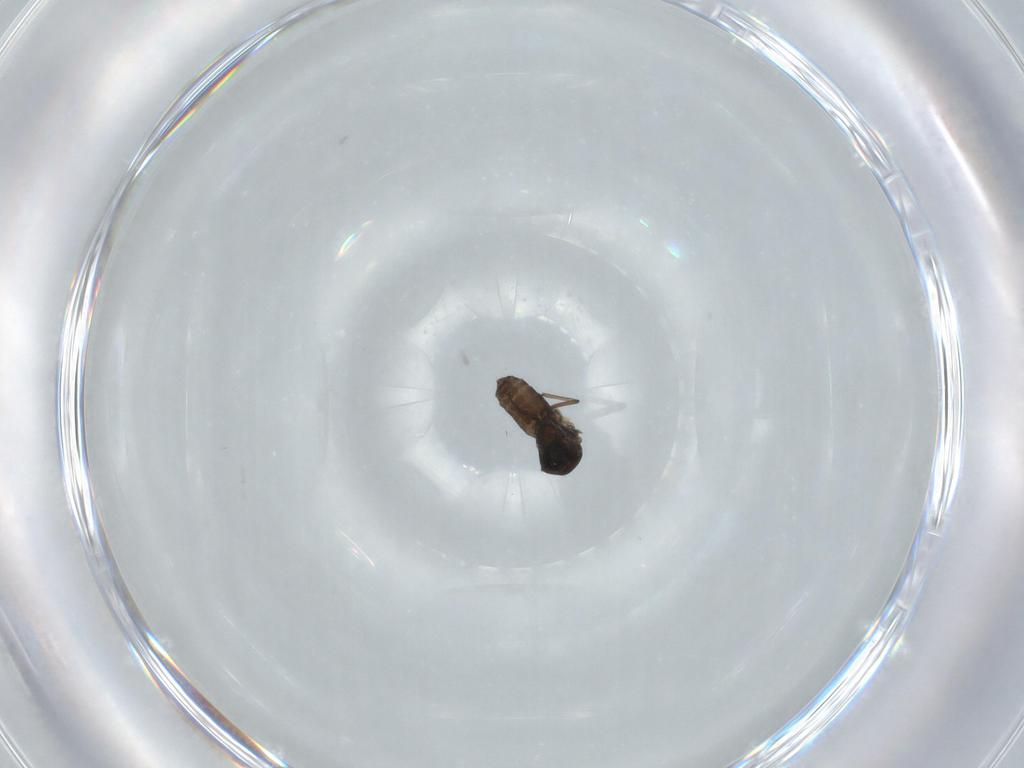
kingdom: Animalia
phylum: Arthropoda
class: Insecta
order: Diptera
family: Ceratopogonidae
